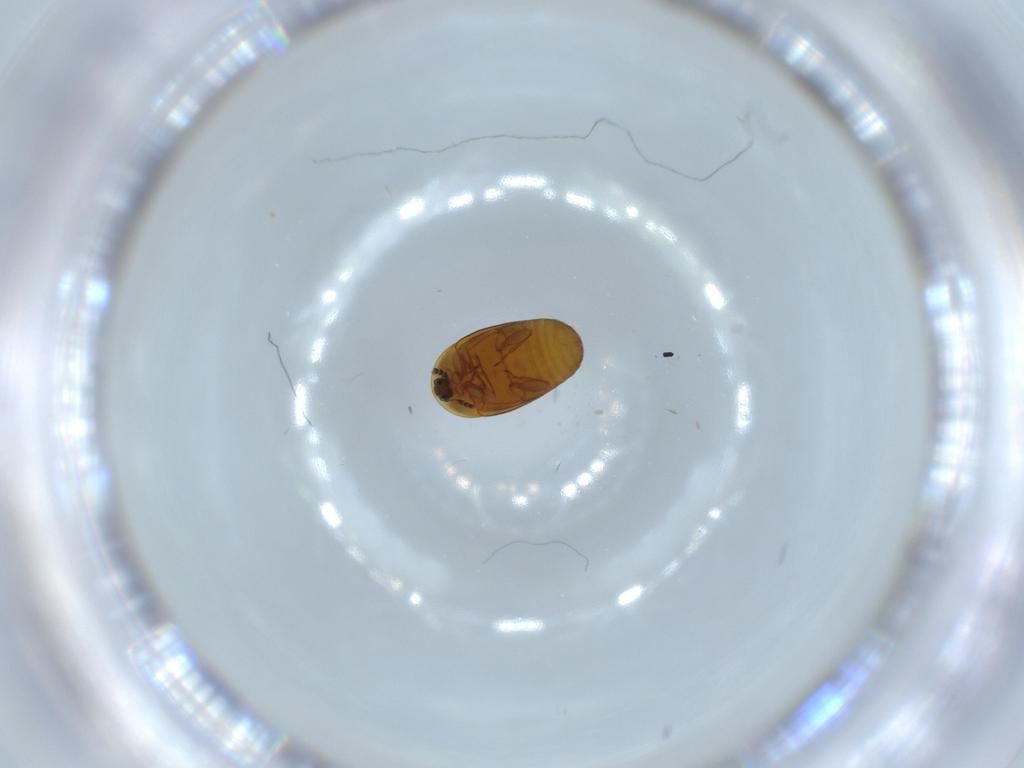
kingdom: Animalia
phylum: Arthropoda
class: Insecta
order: Coleoptera
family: Corylophidae
